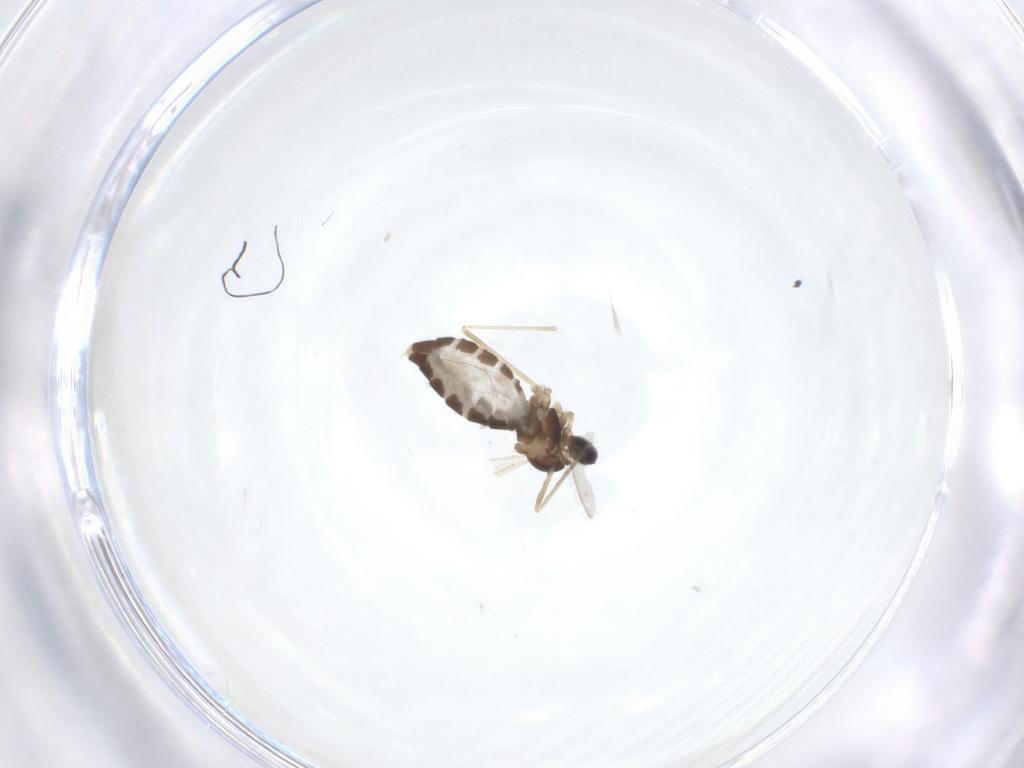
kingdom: Animalia
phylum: Arthropoda
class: Insecta
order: Diptera
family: Cecidomyiidae
